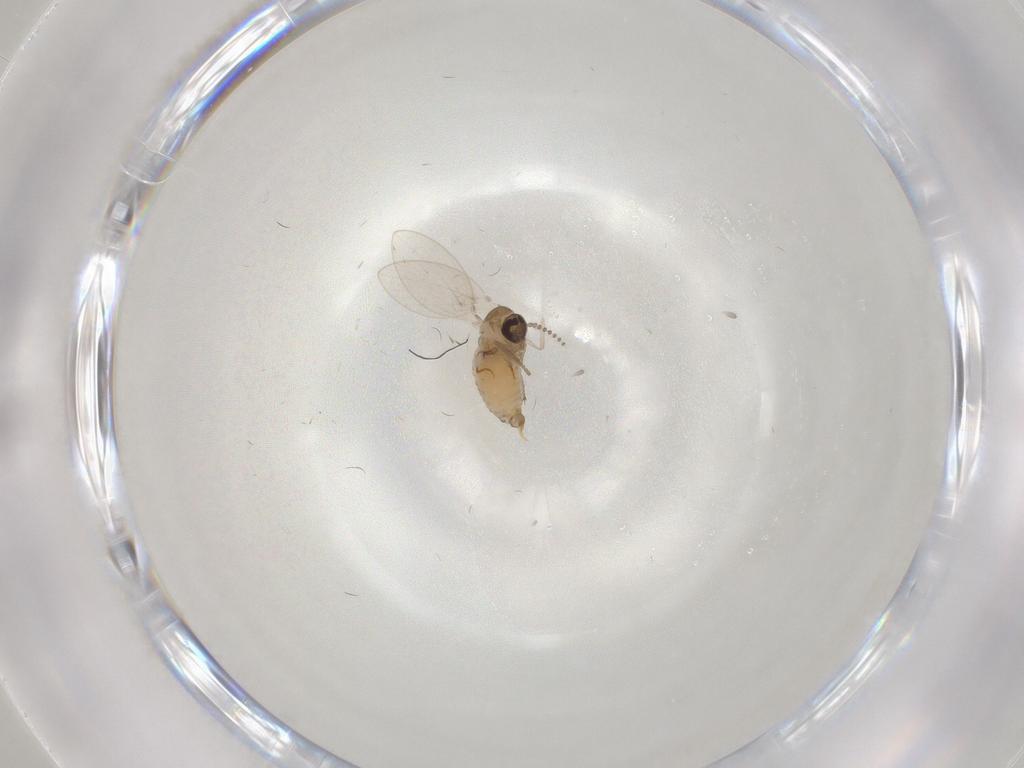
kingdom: Animalia
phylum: Arthropoda
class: Insecta
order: Diptera
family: Psychodidae
